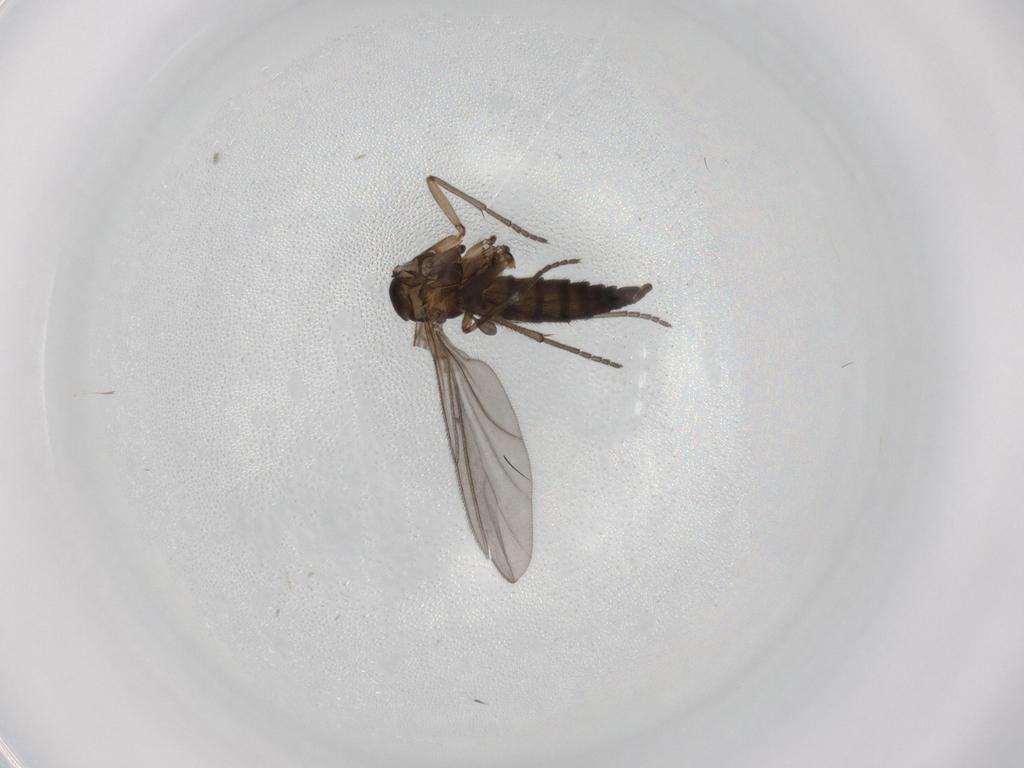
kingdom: Animalia
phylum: Arthropoda
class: Insecta
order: Diptera
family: Sciaridae
